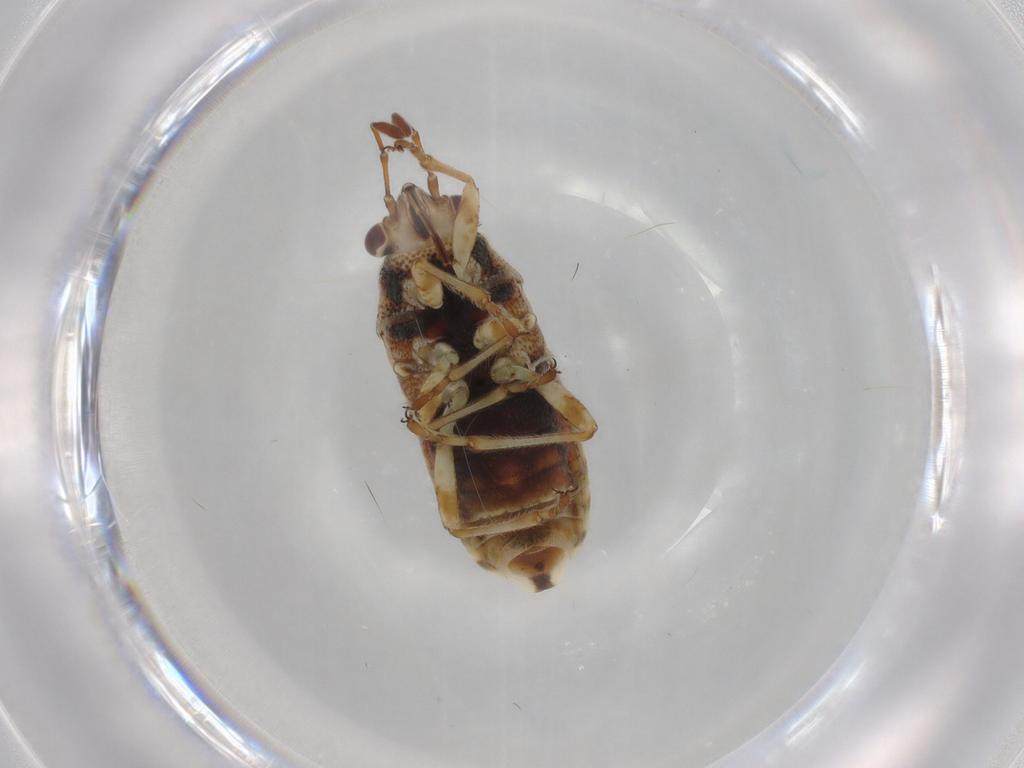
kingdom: Animalia
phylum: Arthropoda
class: Insecta
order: Hemiptera
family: Lygaeidae
